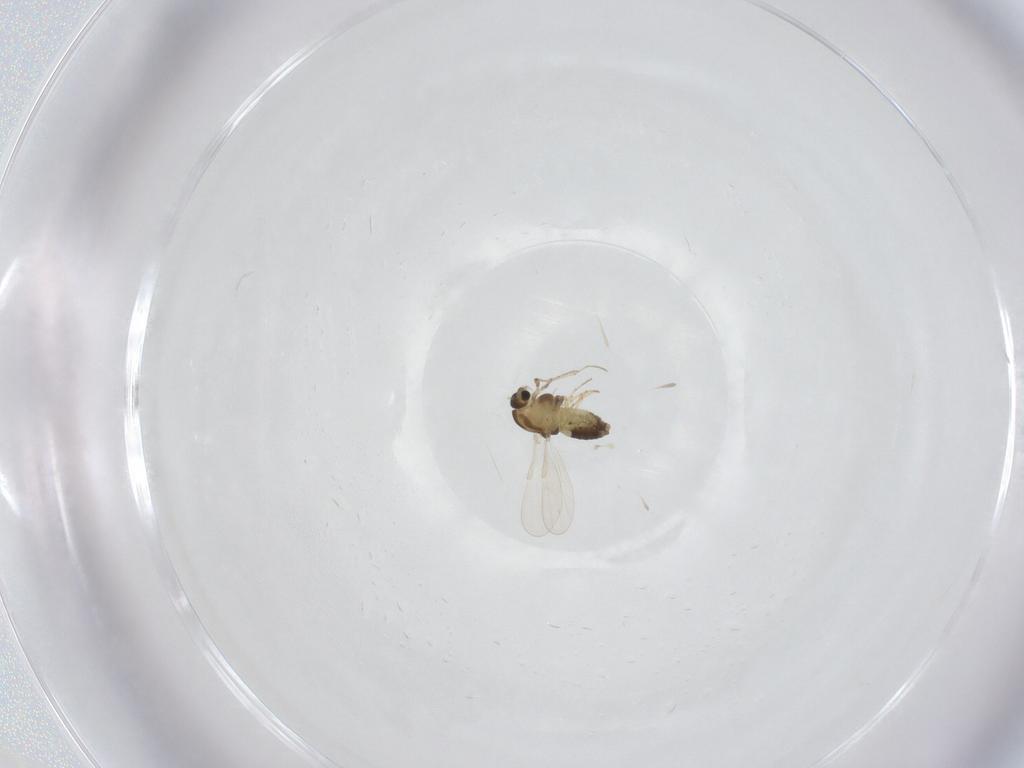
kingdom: Animalia
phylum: Arthropoda
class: Insecta
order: Diptera
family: Chironomidae
